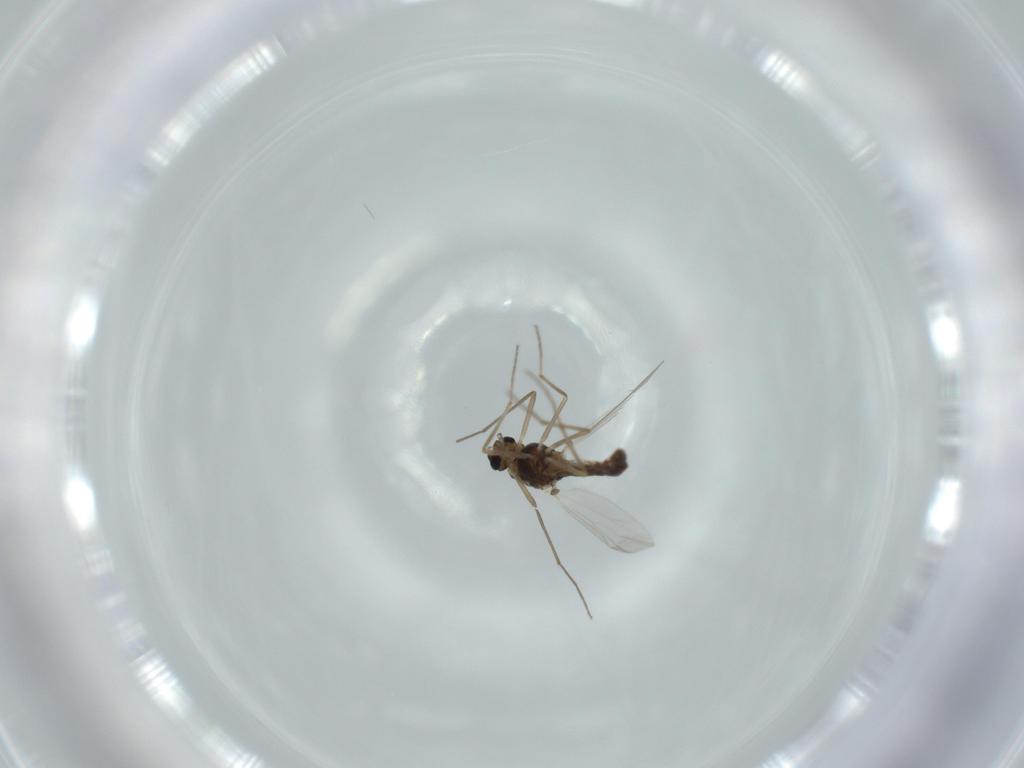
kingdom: Animalia
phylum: Arthropoda
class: Insecta
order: Diptera
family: Chironomidae
